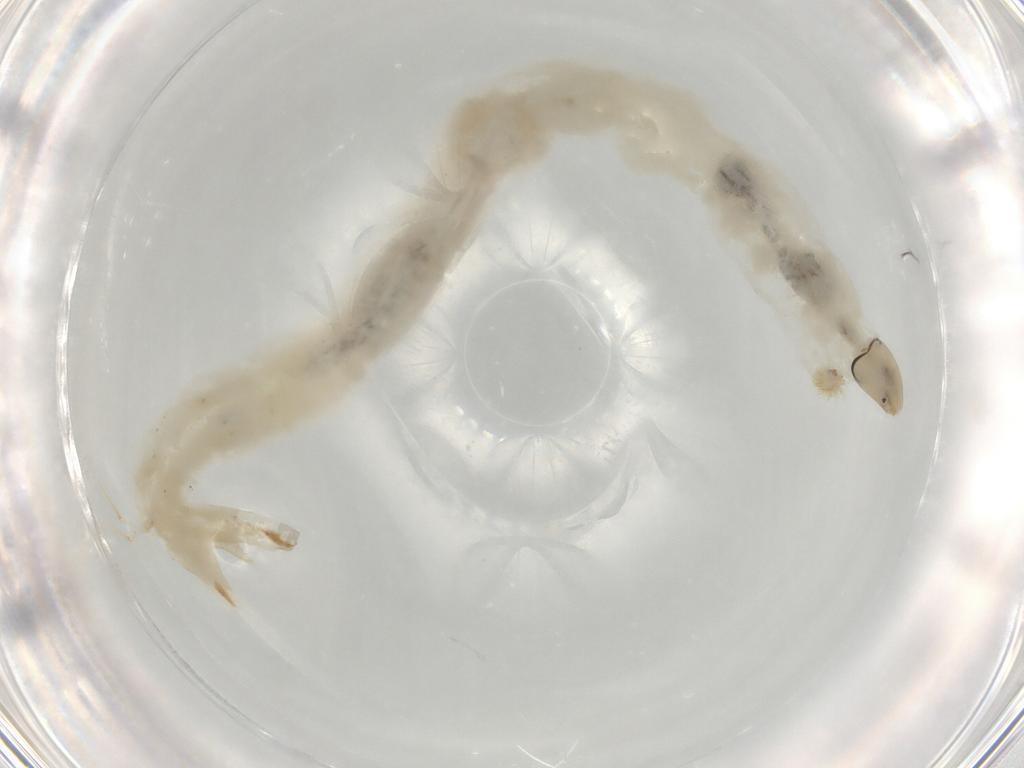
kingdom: Animalia
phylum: Arthropoda
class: Insecta
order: Diptera
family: Chironomidae
